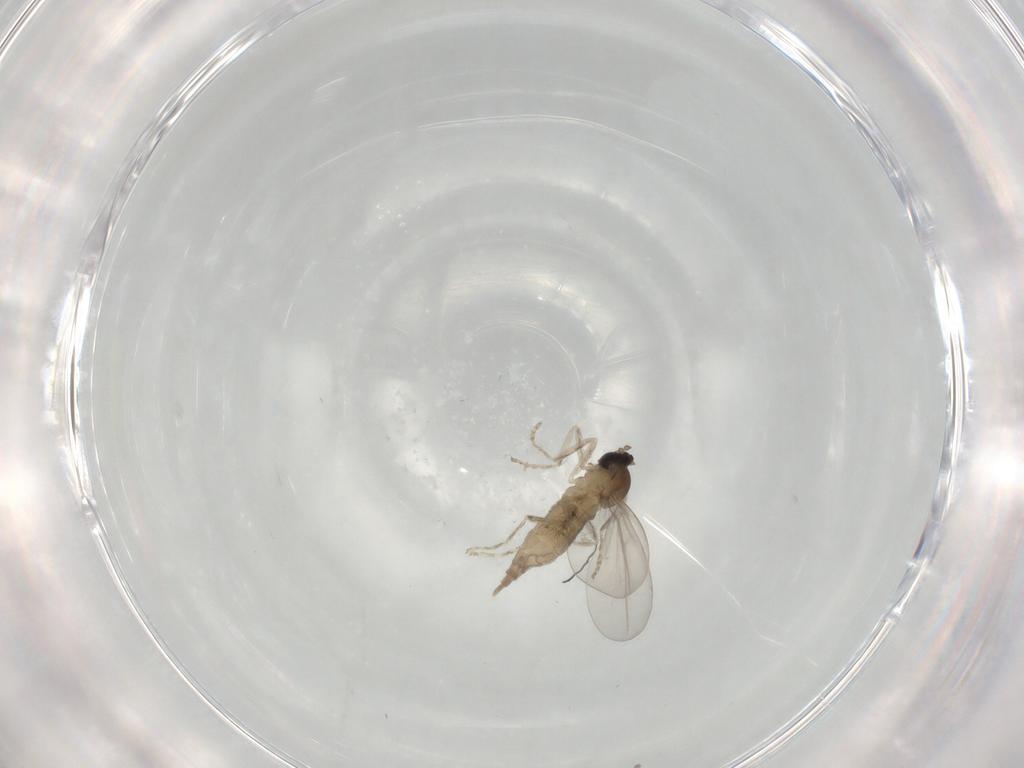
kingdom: Animalia
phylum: Arthropoda
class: Insecta
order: Diptera
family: Cecidomyiidae
